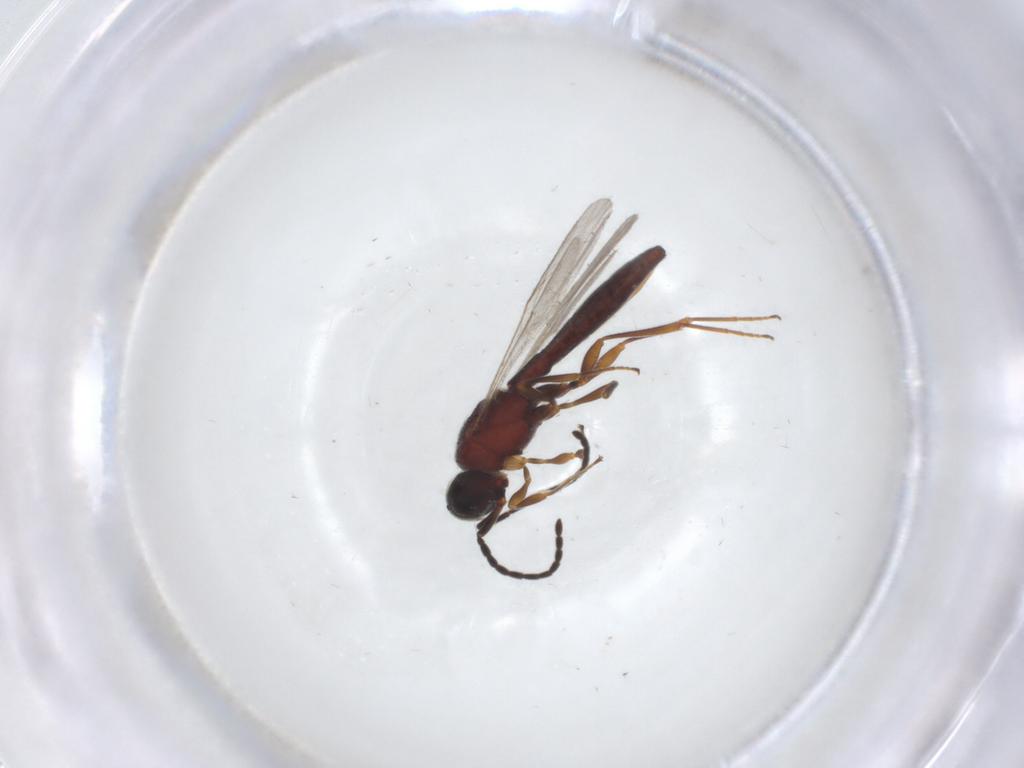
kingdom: Animalia
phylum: Arthropoda
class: Insecta
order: Hymenoptera
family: Scelionidae
